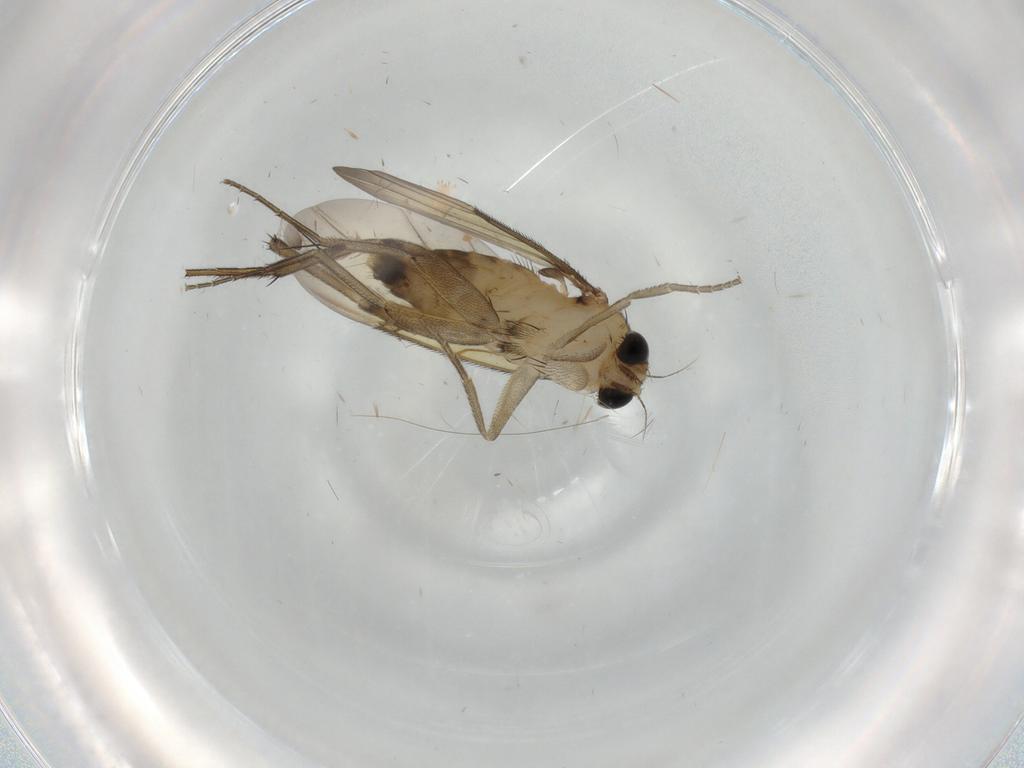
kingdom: Animalia
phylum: Arthropoda
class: Insecta
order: Diptera
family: Phoridae
